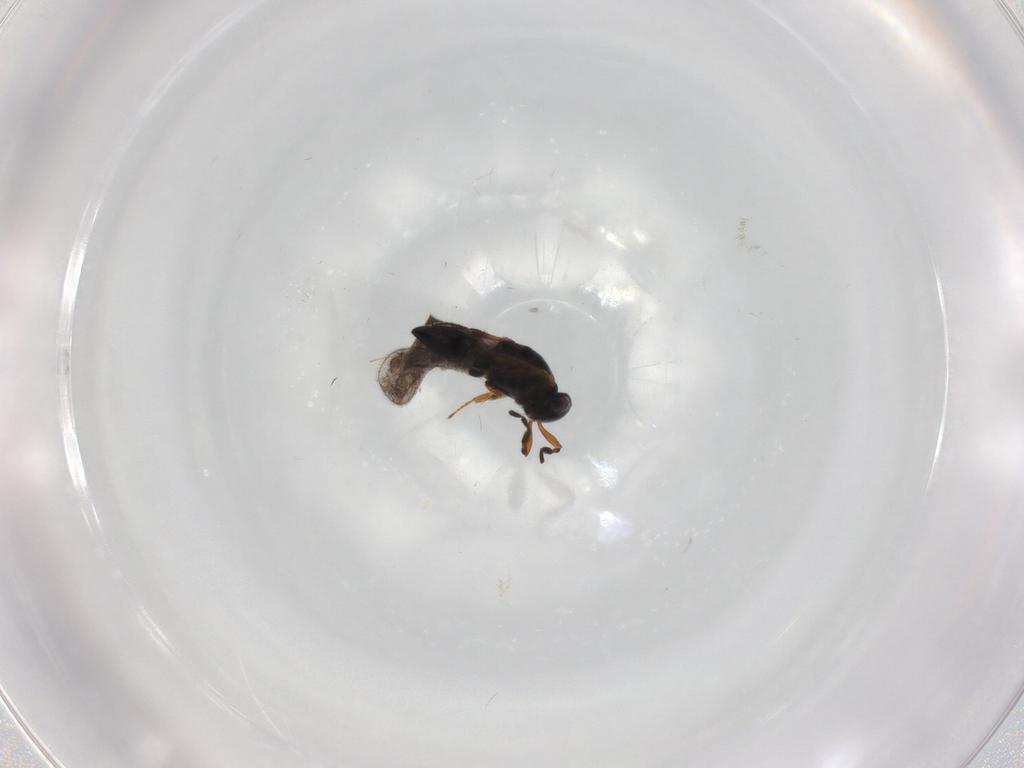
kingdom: Animalia
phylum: Arthropoda
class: Insecta
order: Hymenoptera
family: Platygastridae
